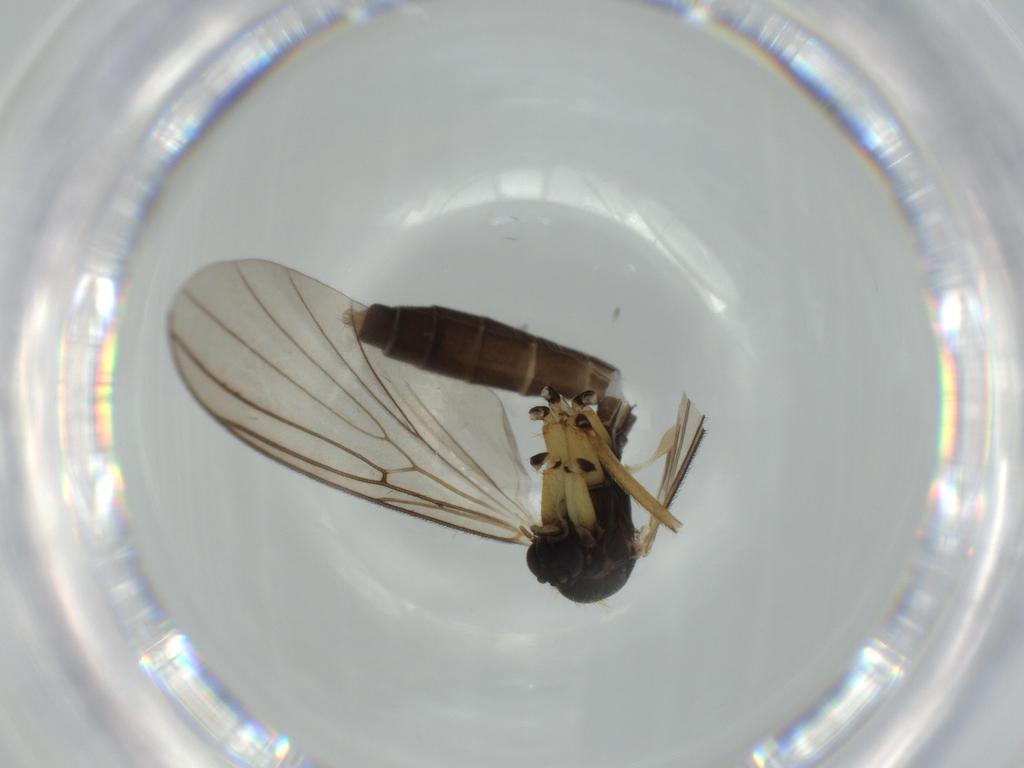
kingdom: Animalia
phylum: Arthropoda
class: Insecta
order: Diptera
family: Mycetophilidae
